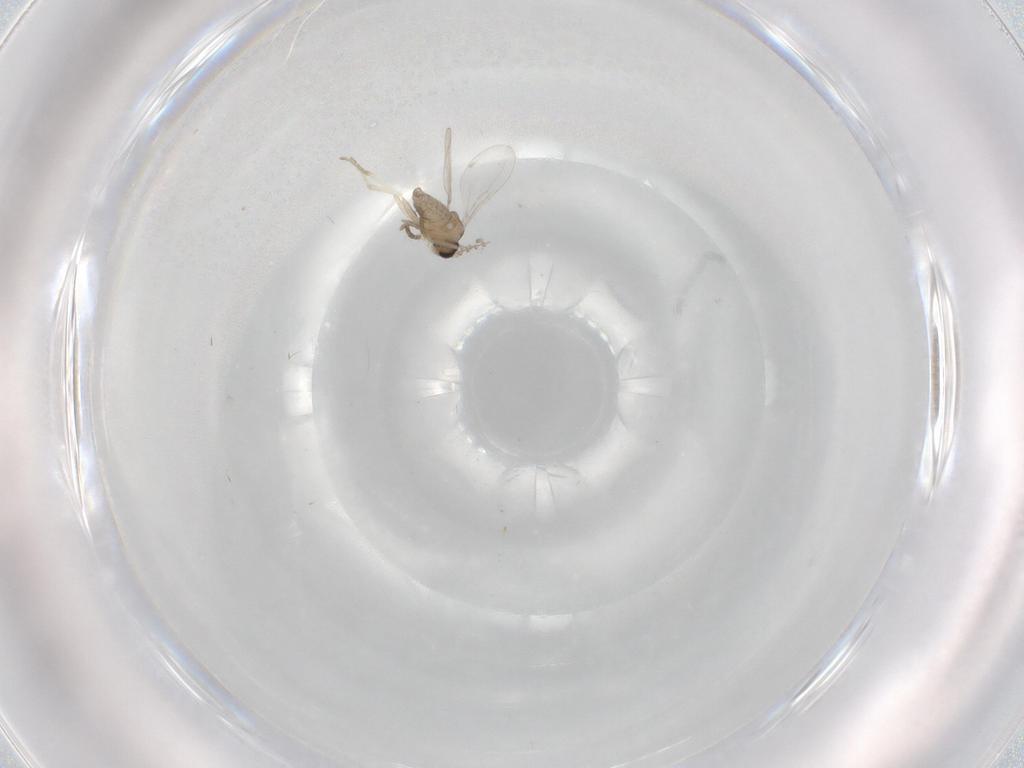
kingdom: Animalia
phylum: Arthropoda
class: Insecta
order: Diptera
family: Cecidomyiidae
